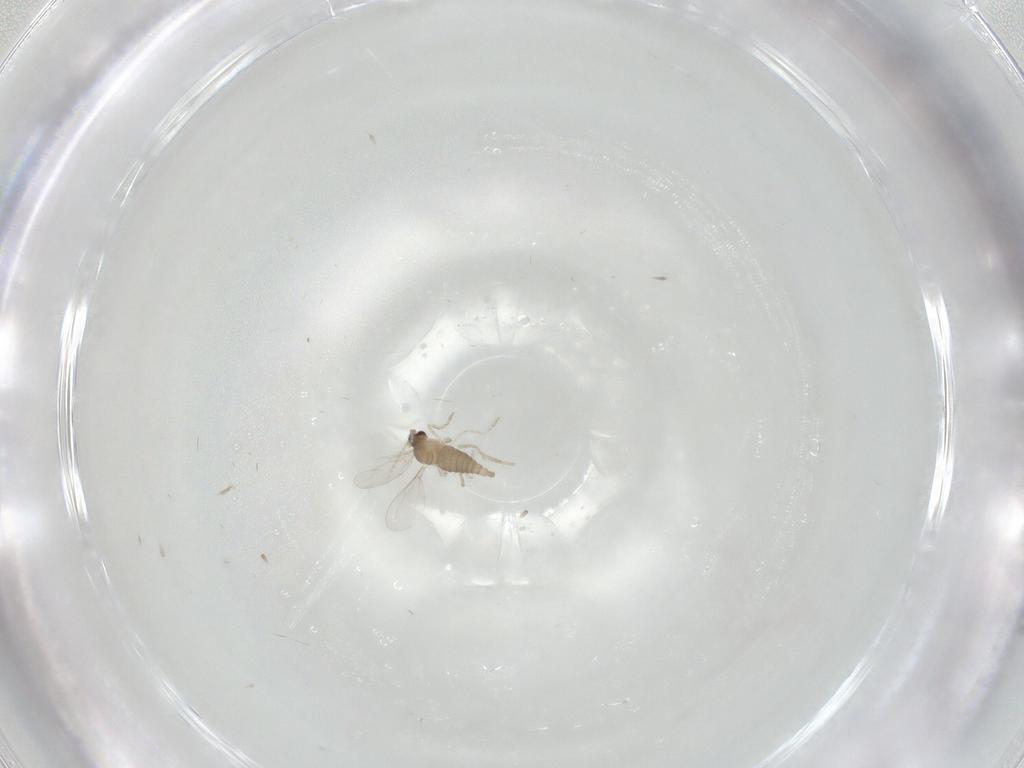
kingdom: Animalia
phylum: Arthropoda
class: Insecta
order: Diptera
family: Cecidomyiidae
